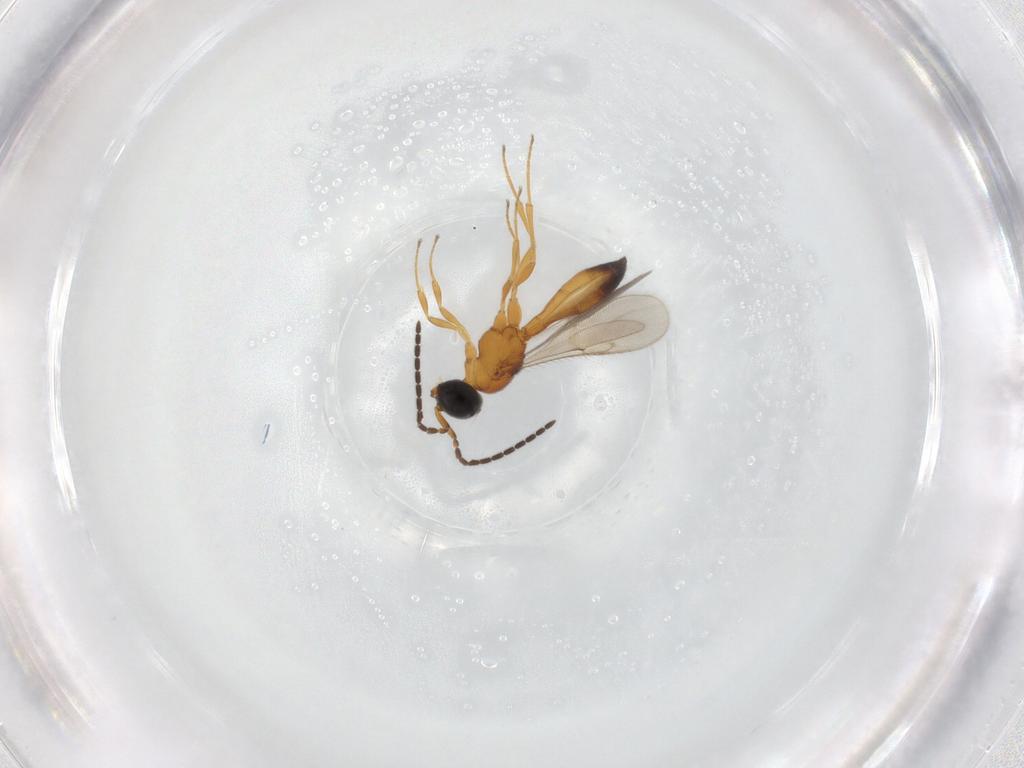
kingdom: Animalia
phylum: Arthropoda
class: Insecta
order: Hymenoptera
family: Scelionidae
